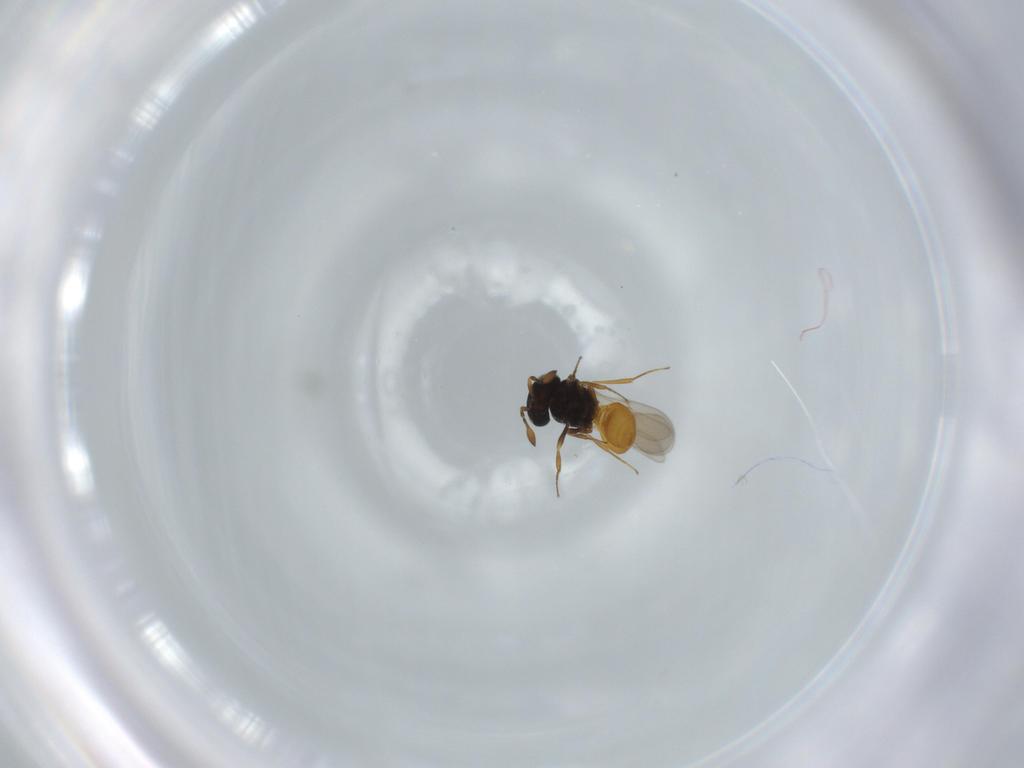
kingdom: Animalia
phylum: Arthropoda
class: Insecta
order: Hymenoptera
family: Scelionidae
